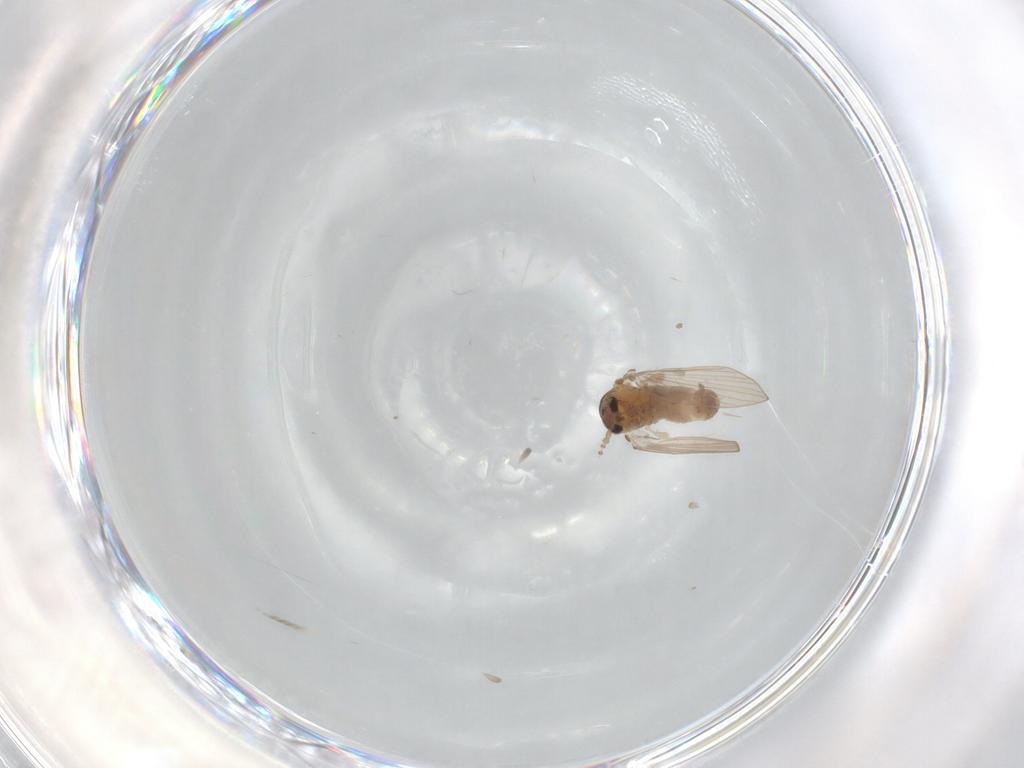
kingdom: Animalia
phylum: Arthropoda
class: Insecta
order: Diptera
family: Psychodidae
